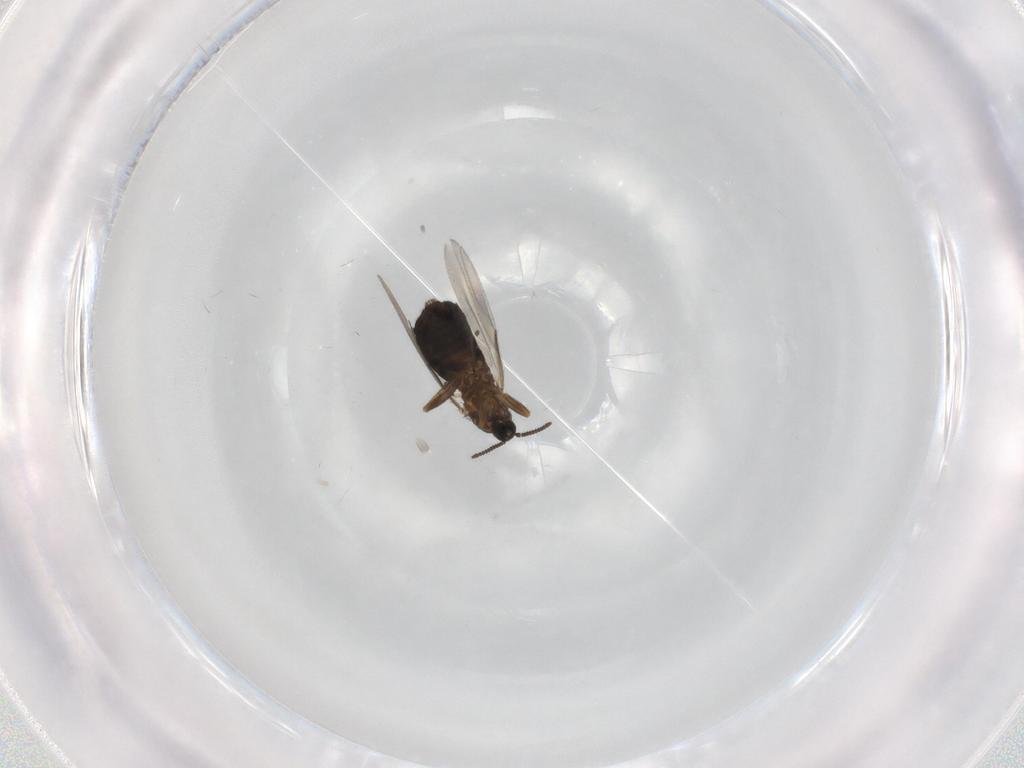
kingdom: Animalia
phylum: Arthropoda
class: Insecta
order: Diptera
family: Scatopsidae
